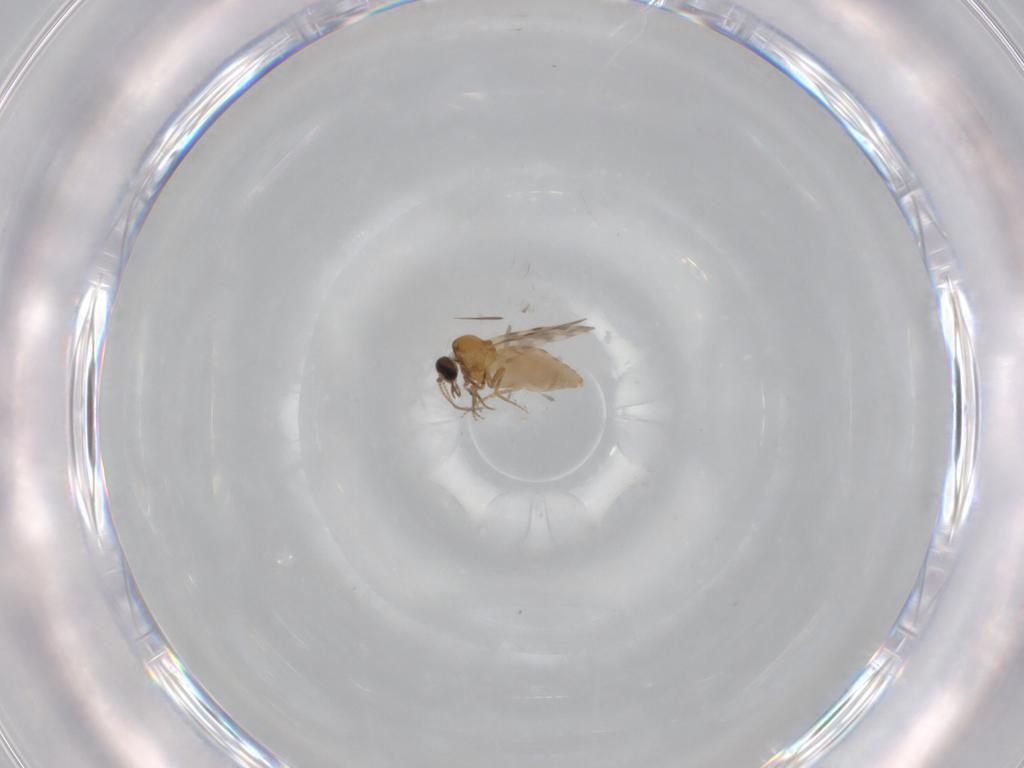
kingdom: Animalia
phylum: Arthropoda
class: Insecta
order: Diptera
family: Ceratopogonidae
